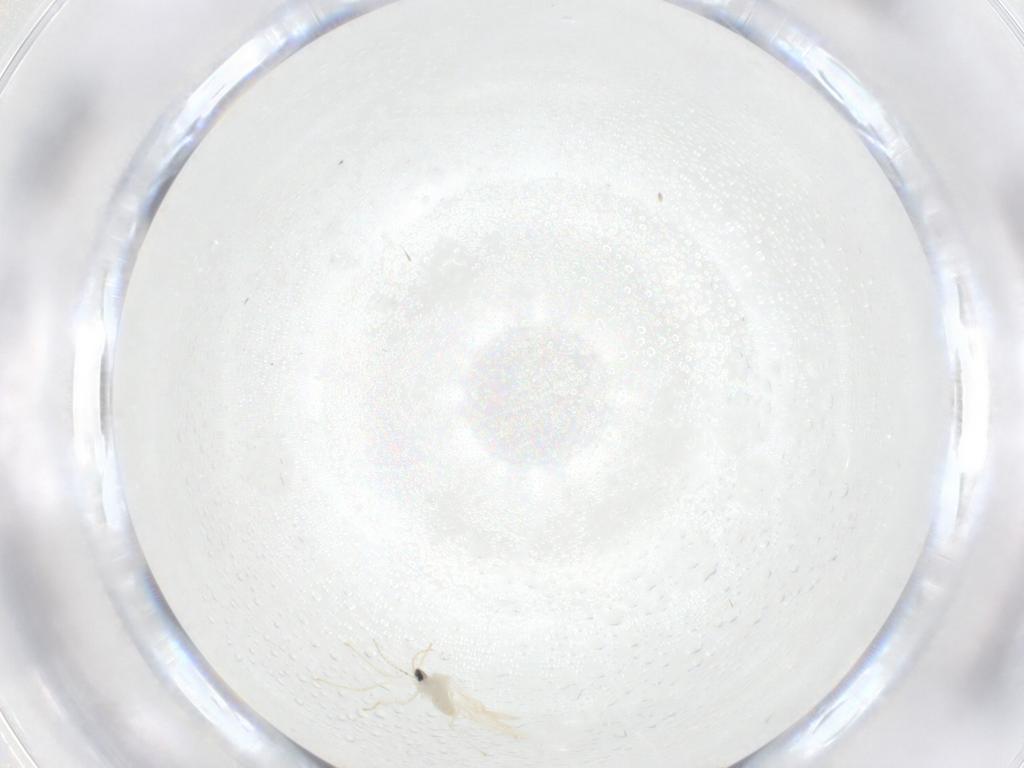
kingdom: Animalia
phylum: Arthropoda
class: Insecta
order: Diptera
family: Cecidomyiidae
